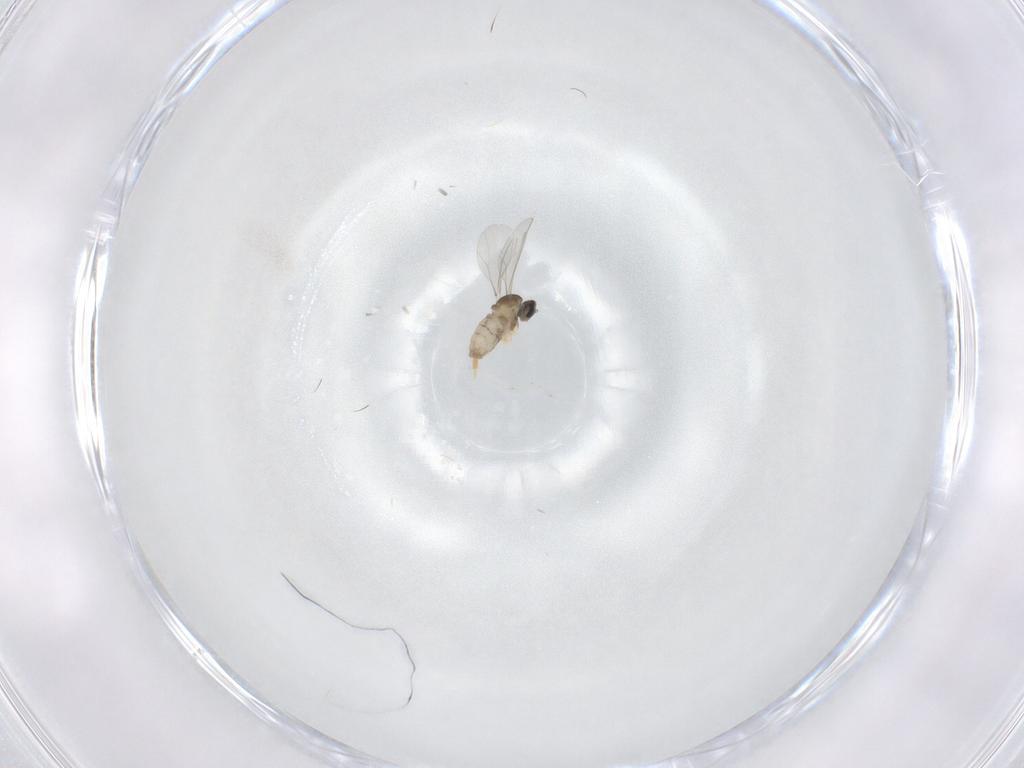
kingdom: Animalia
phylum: Arthropoda
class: Insecta
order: Diptera
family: Cecidomyiidae
